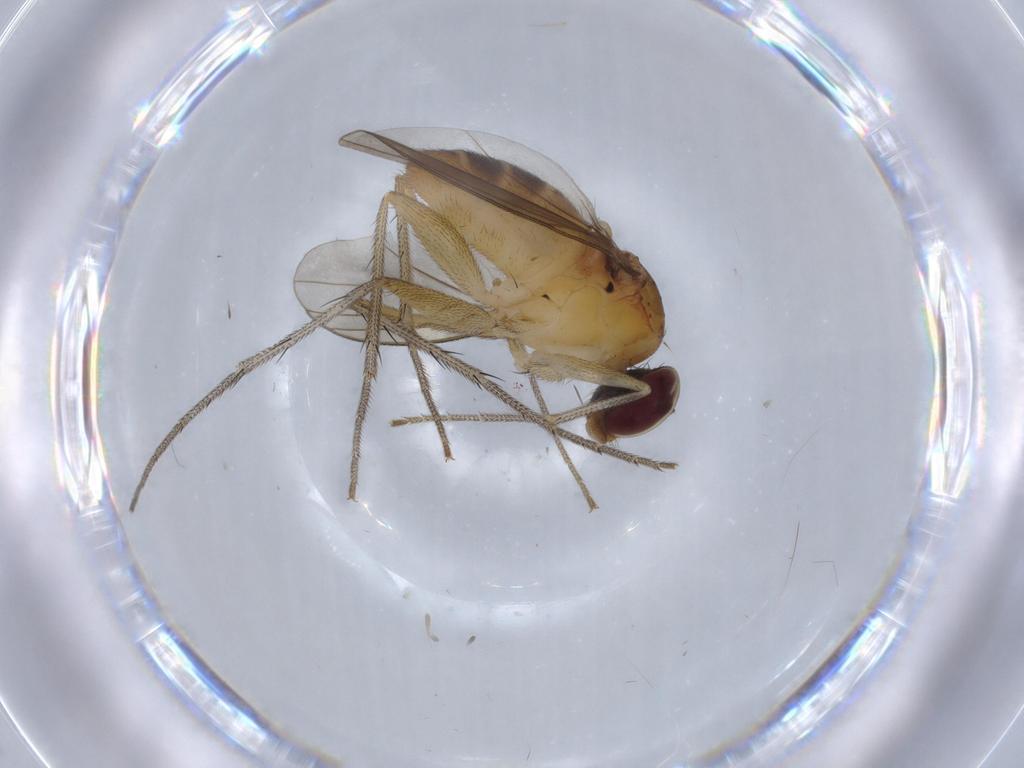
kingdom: Animalia
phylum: Arthropoda
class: Insecta
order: Diptera
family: Dolichopodidae
